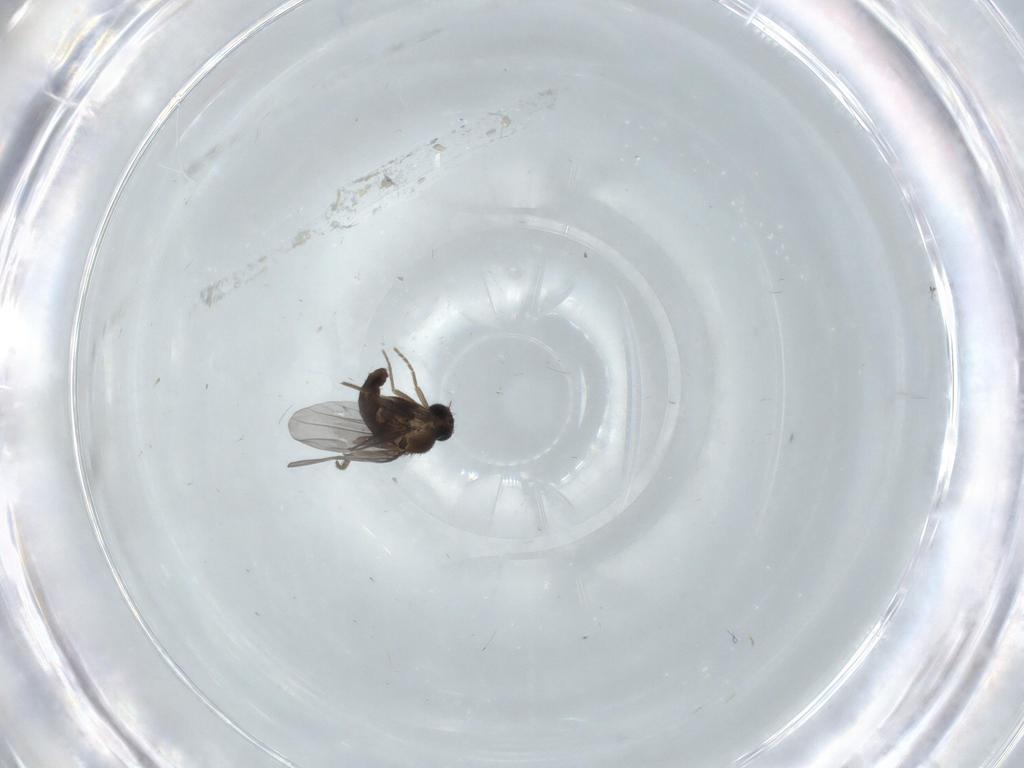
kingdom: Animalia
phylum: Arthropoda
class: Insecta
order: Diptera
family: Phoridae
